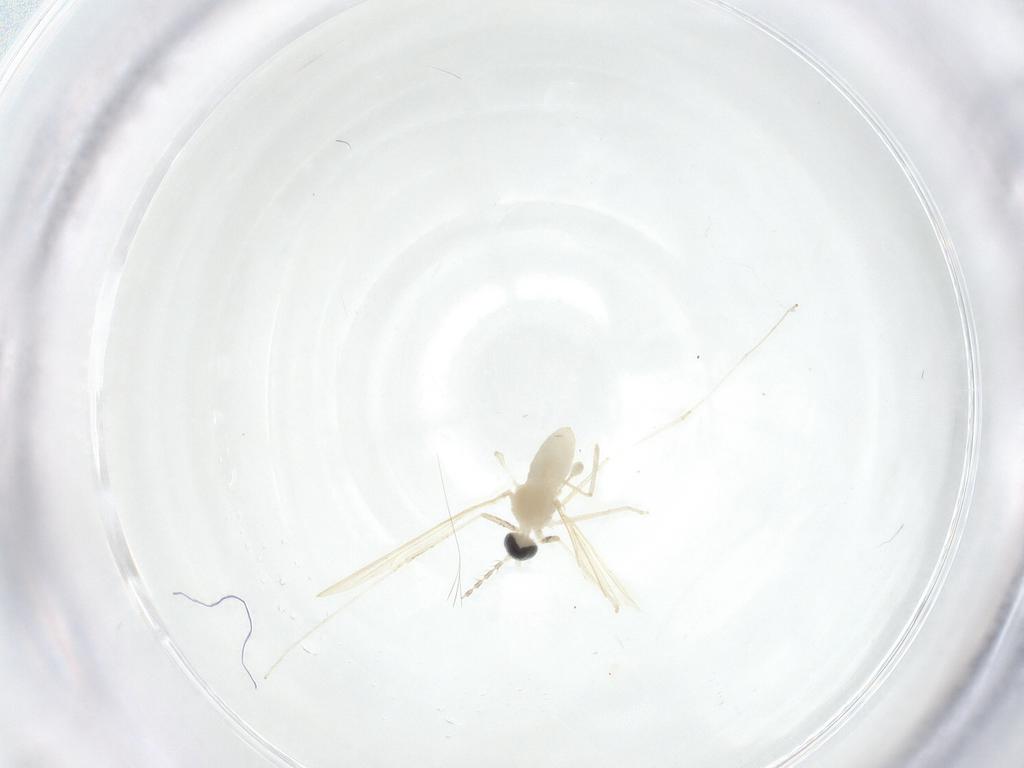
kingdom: Animalia
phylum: Arthropoda
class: Insecta
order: Diptera
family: Cecidomyiidae
